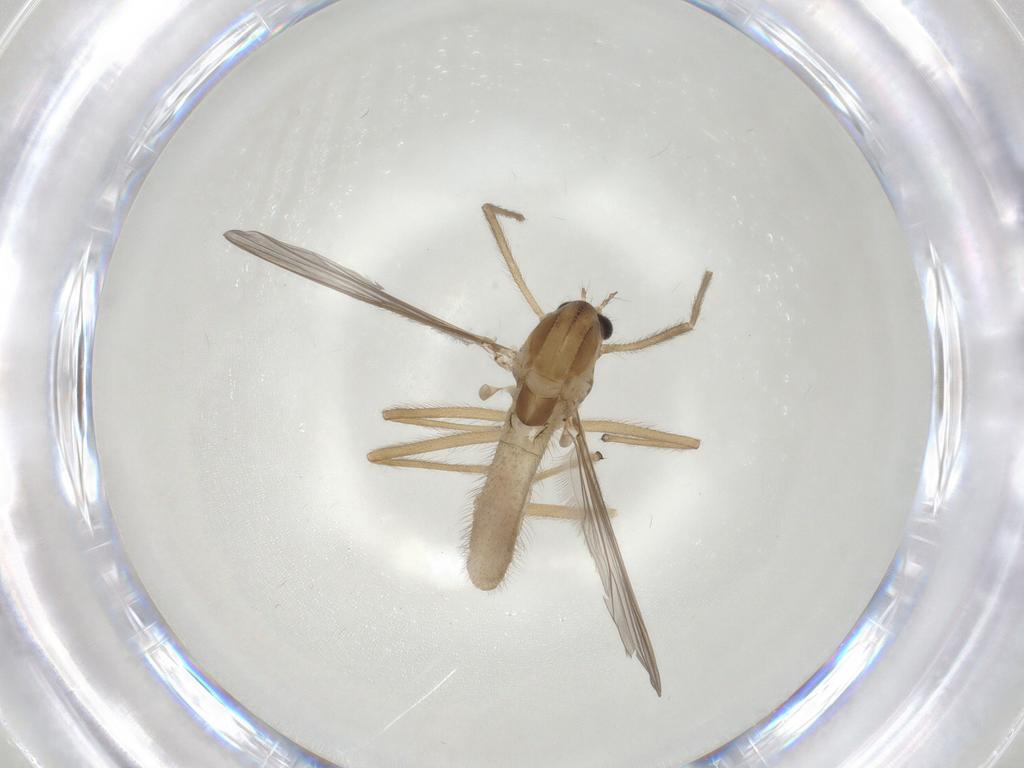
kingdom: Animalia
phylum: Arthropoda
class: Insecta
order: Diptera
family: Chironomidae
